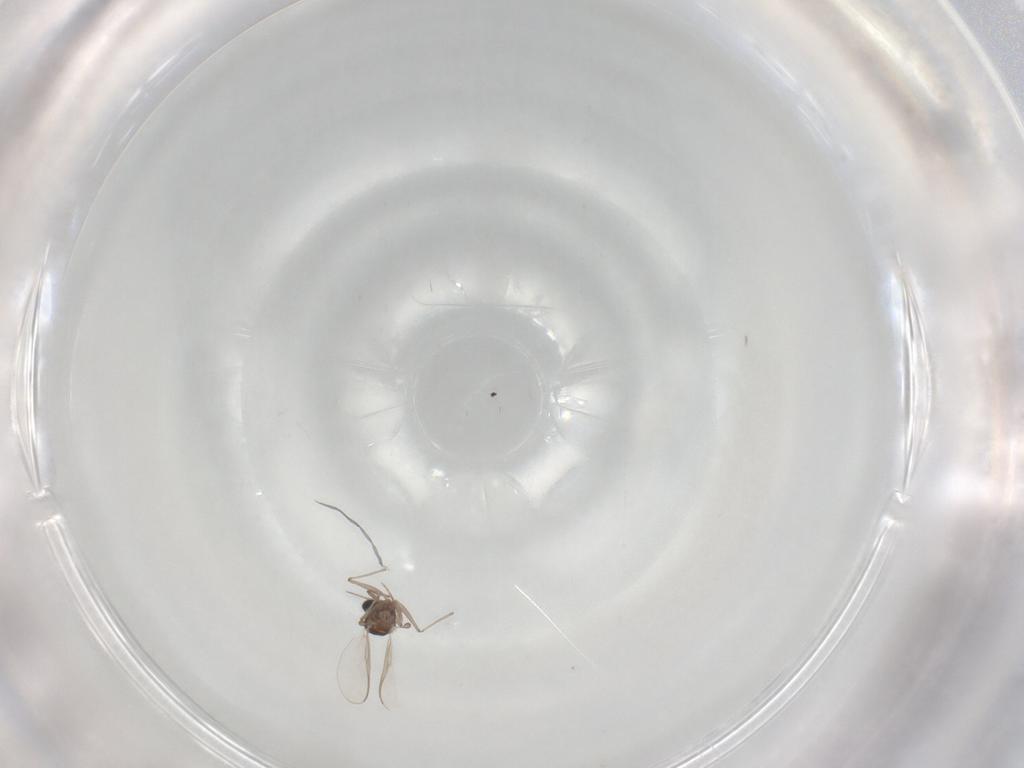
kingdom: Animalia
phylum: Arthropoda
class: Insecta
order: Diptera
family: Chironomidae
